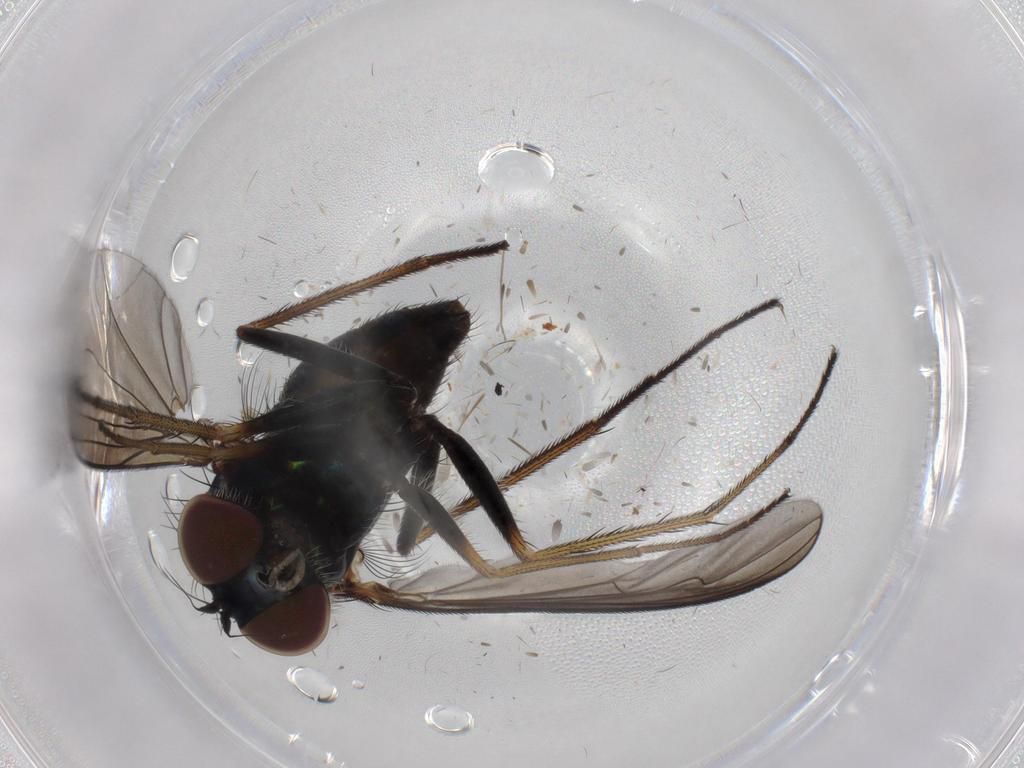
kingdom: Animalia
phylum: Arthropoda
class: Insecta
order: Diptera
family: Dolichopodidae
